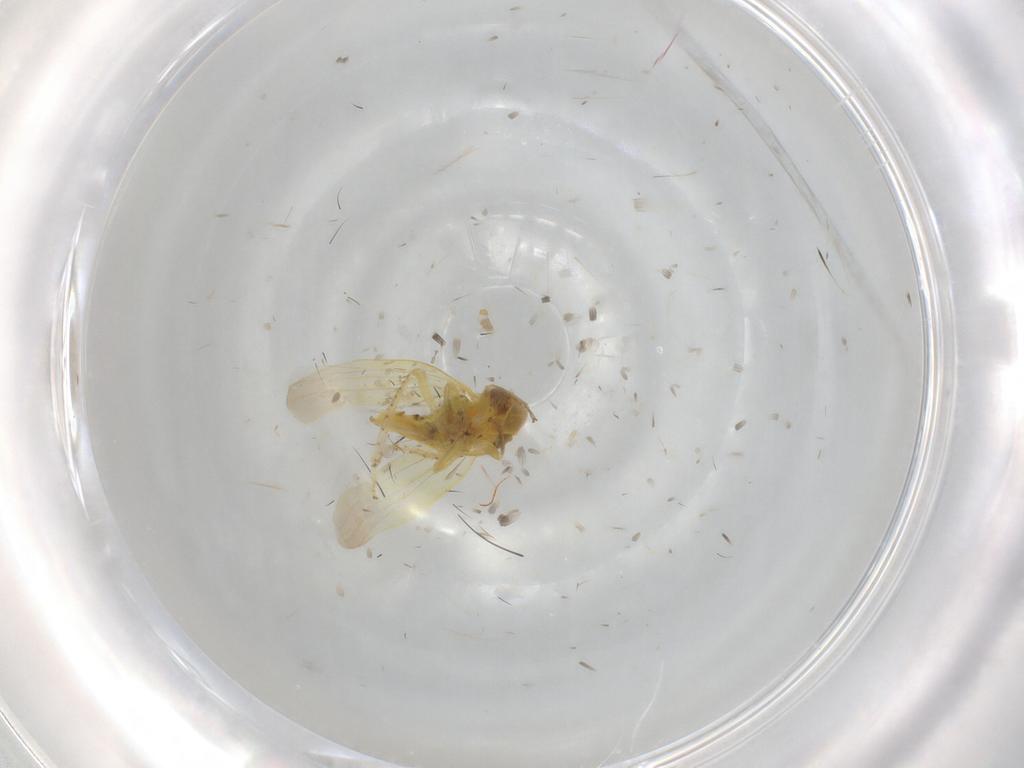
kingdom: Animalia
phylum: Arthropoda
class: Insecta
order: Hemiptera
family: Cicadellidae
